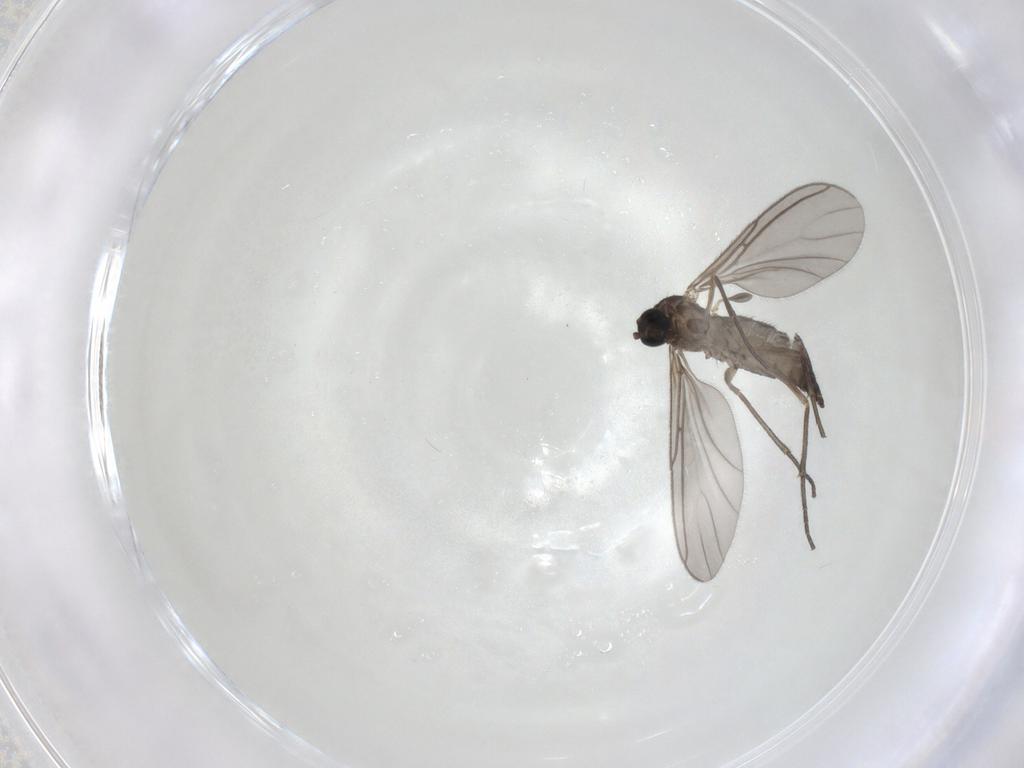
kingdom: Animalia
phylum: Arthropoda
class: Insecta
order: Diptera
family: Sciaridae
